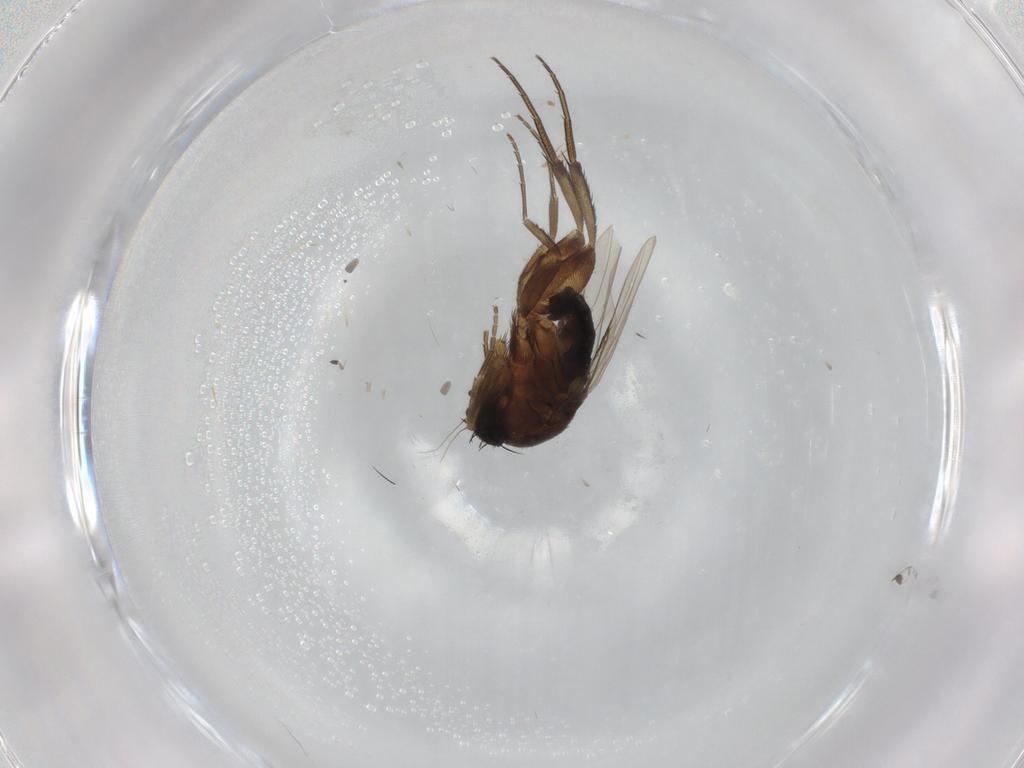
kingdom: Animalia
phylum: Arthropoda
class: Insecta
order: Diptera
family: Phoridae
